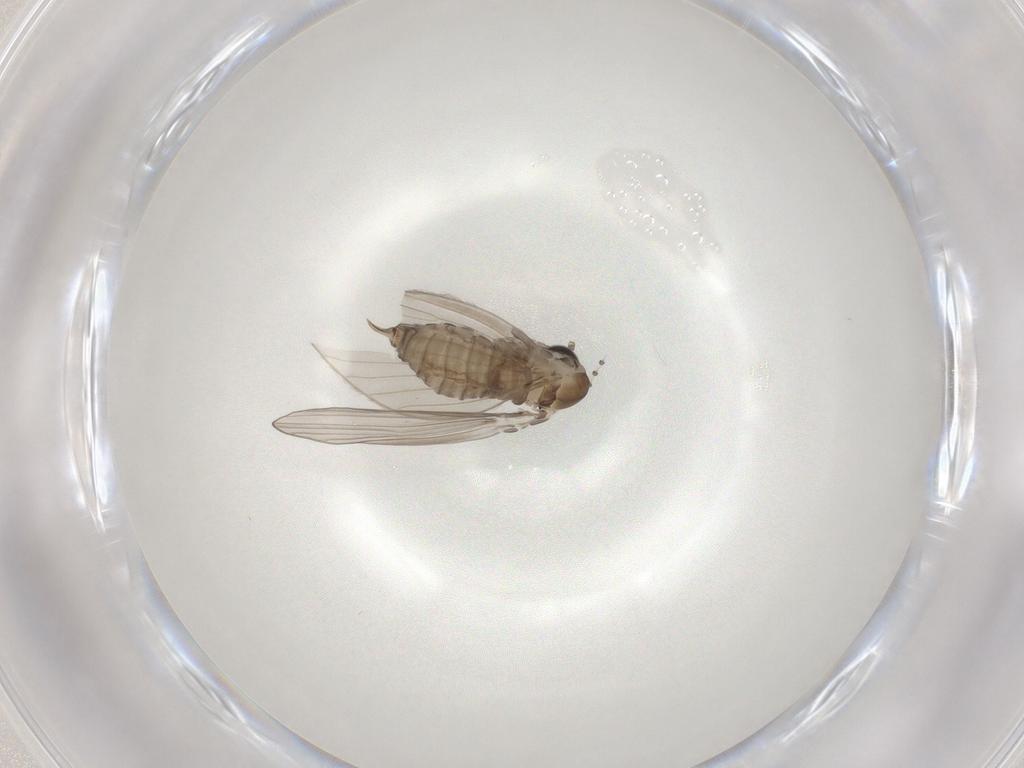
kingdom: Animalia
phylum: Arthropoda
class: Insecta
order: Diptera
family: Psychodidae
